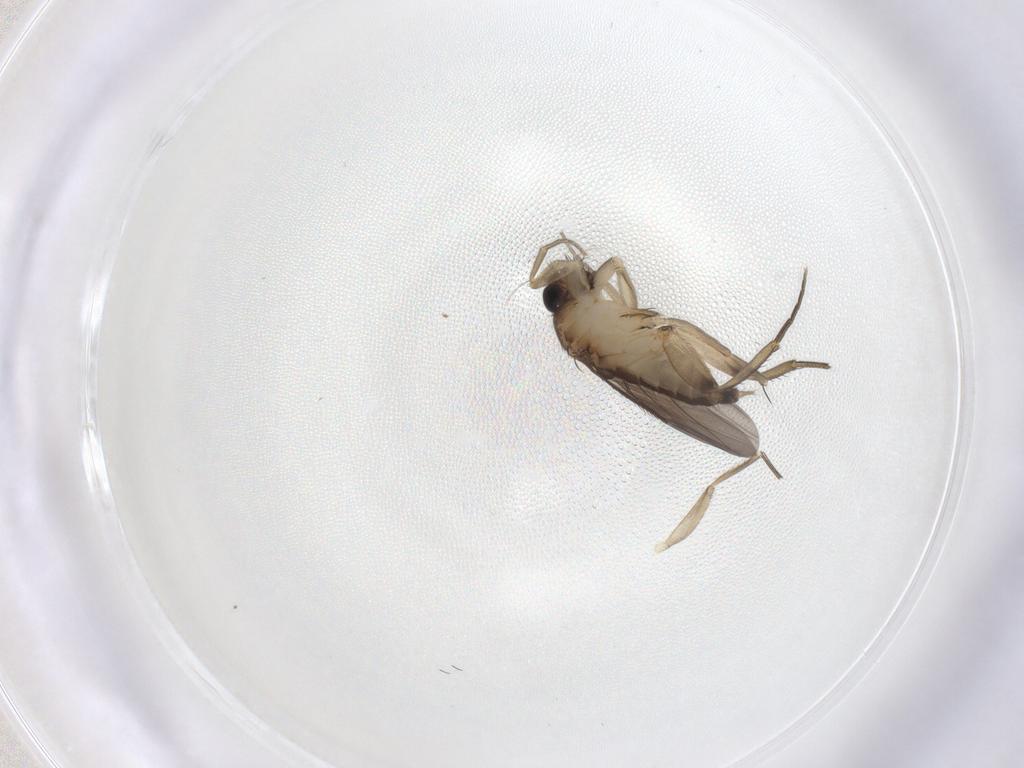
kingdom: Animalia
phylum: Arthropoda
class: Insecta
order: Diptera
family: Phoridae
